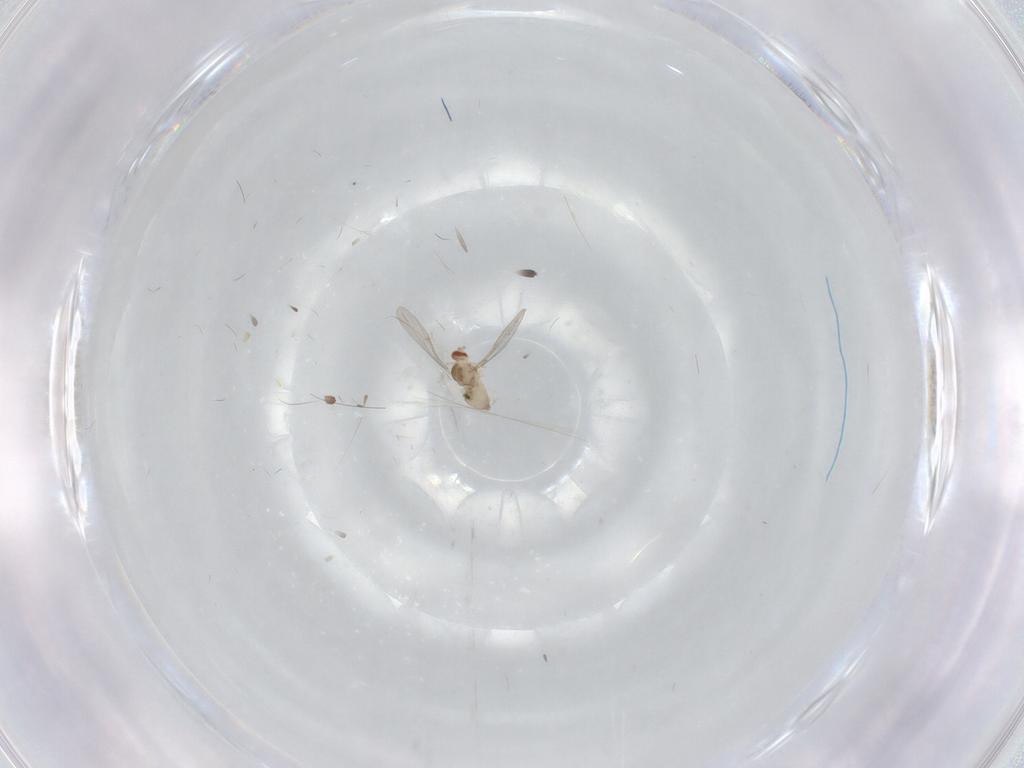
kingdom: Animalia
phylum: Arthropoda
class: Insecta
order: Diptera
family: Cecidomyiidae
